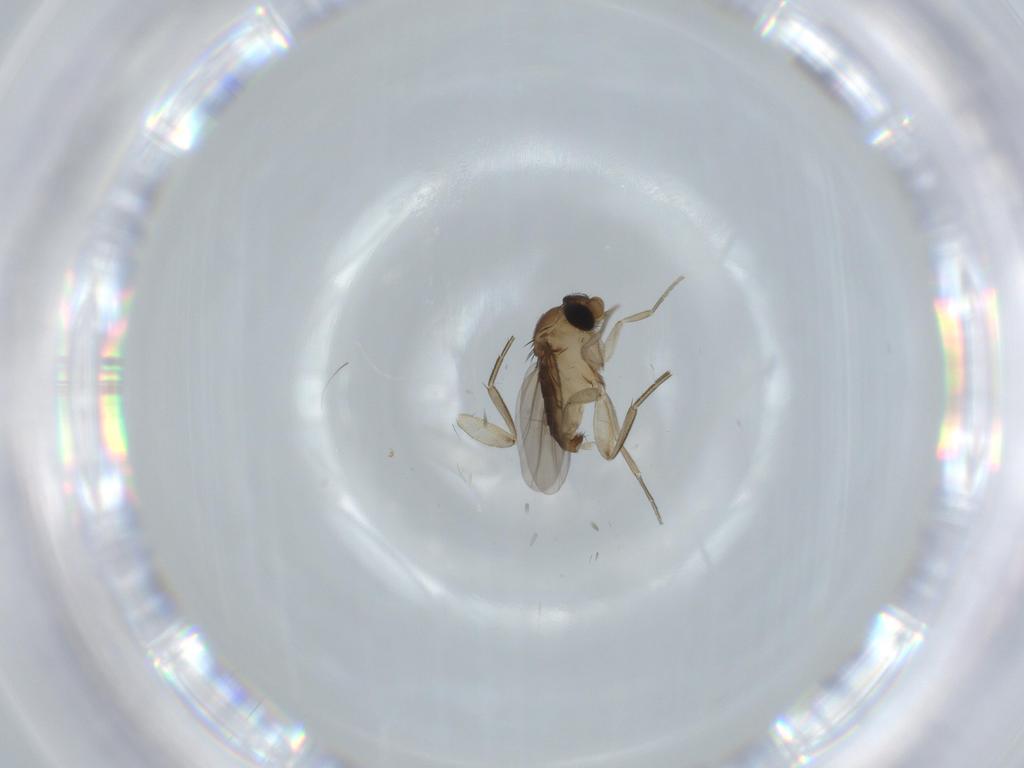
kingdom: Animalia
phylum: Arthropoda
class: Insecta
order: Diptera
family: Phoridae
